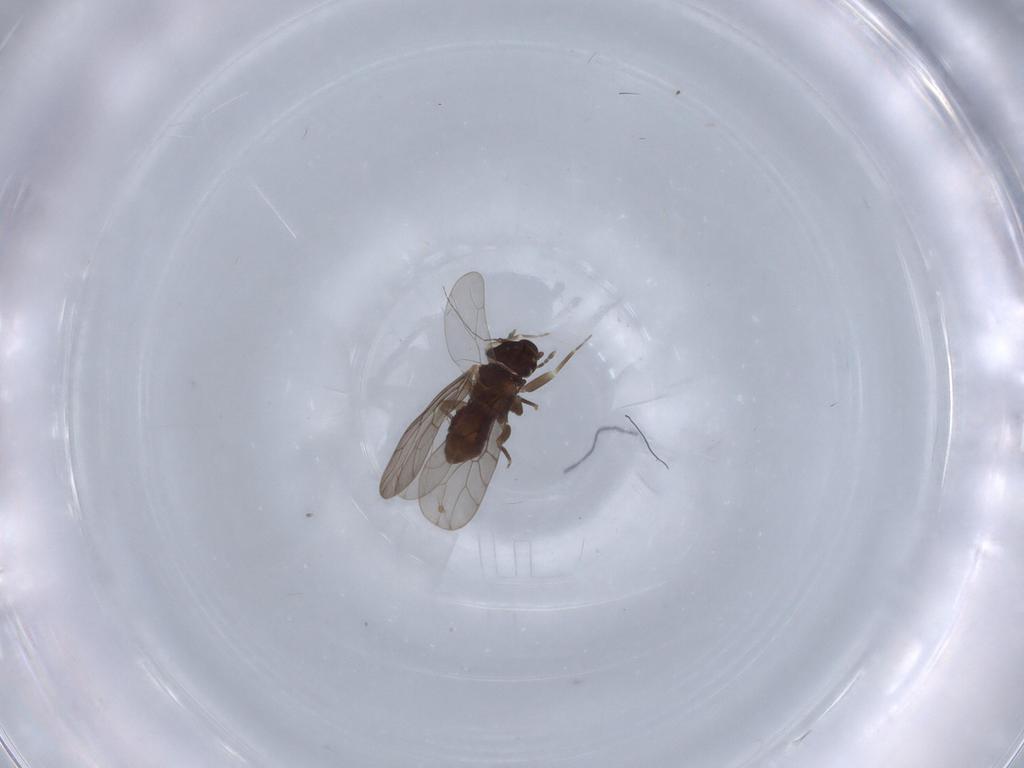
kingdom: Animalia
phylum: Arthropoda
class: Insecta
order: Psocodea
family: Lepidopsocidae
